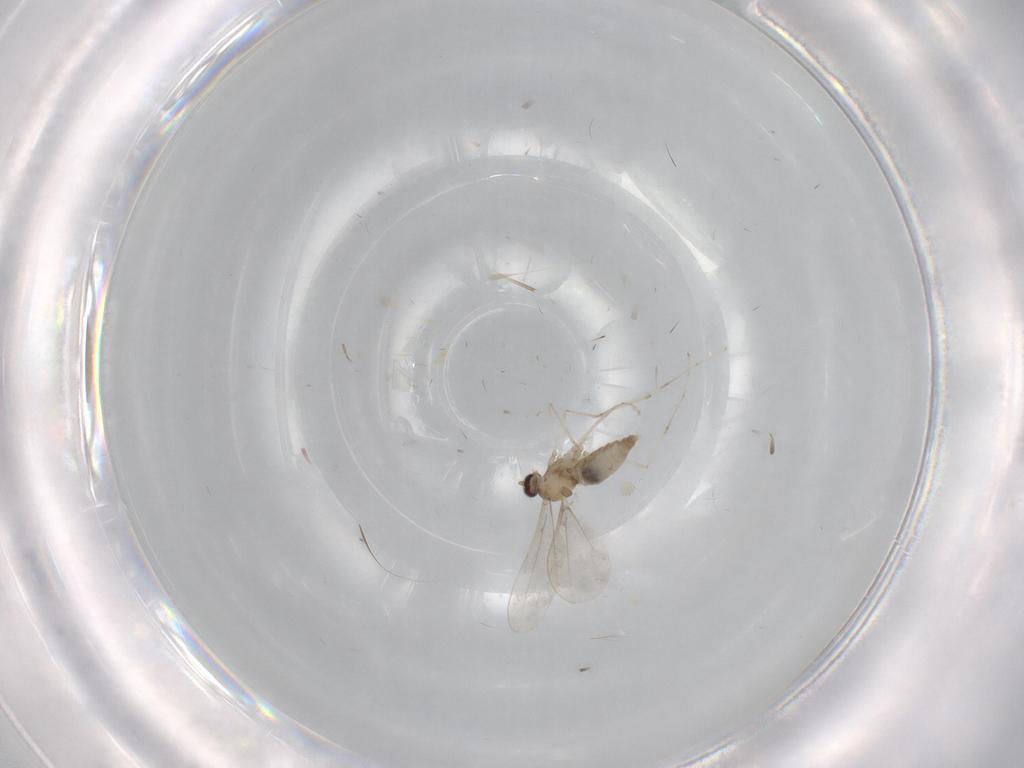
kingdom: Animalia
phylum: Arthropoda
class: Insecta
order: Diptera
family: Cecidomyiidae
